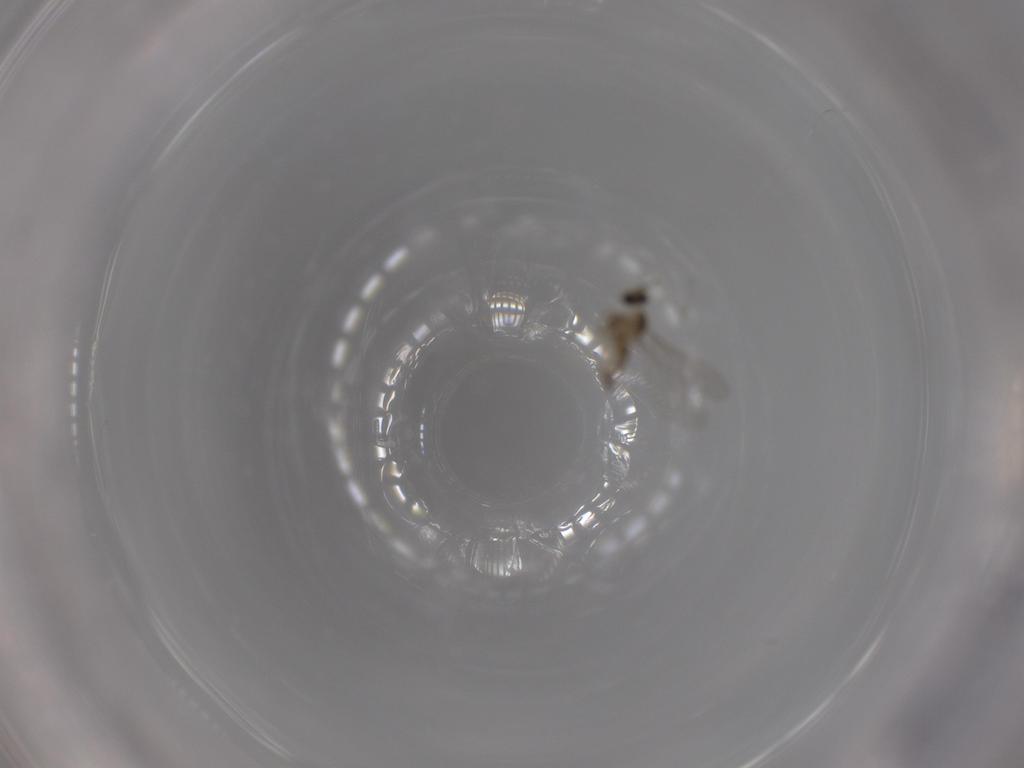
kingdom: Animalia
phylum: Arthropoda
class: Insecta
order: Diptera
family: Cecidomyiidae
